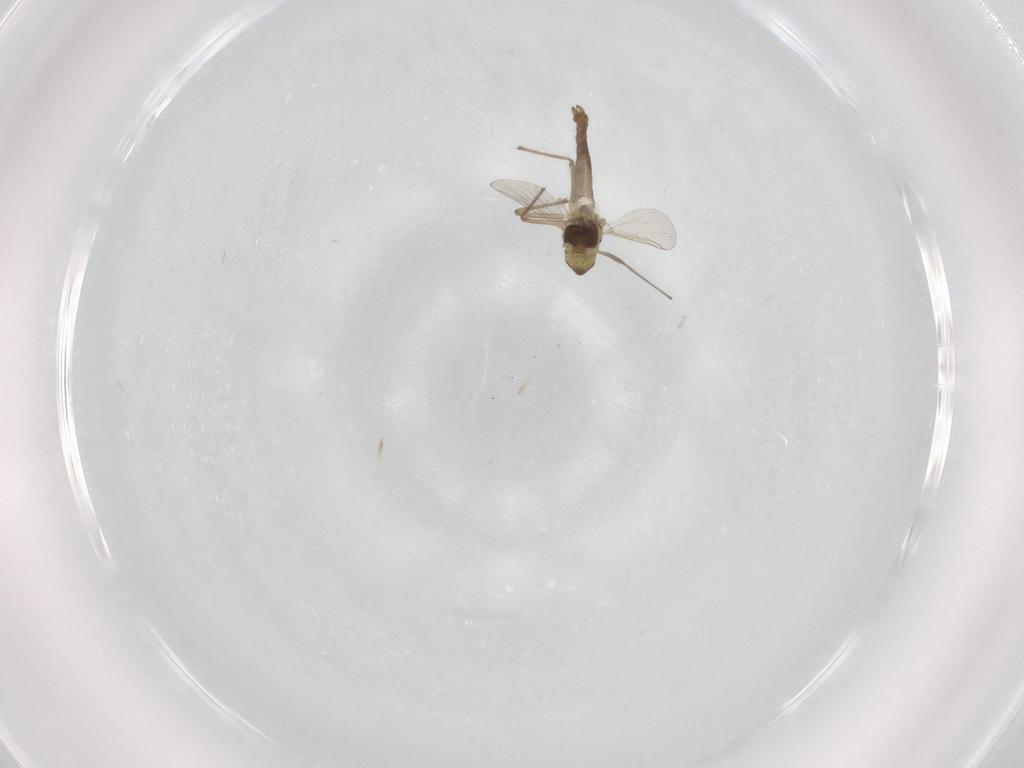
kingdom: Animalia
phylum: Arthropoda
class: Insecta
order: Diptera
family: Chironomidae
